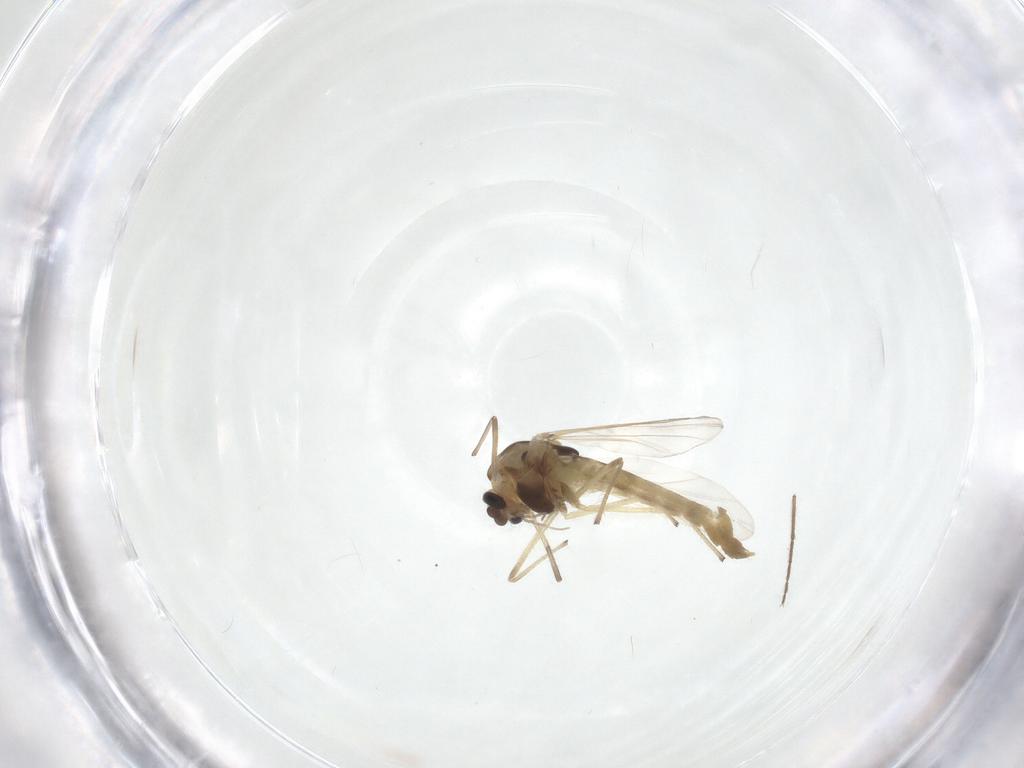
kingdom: Animalia
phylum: Arthropoda
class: Insecta
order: Diptera
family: Chironomidae
